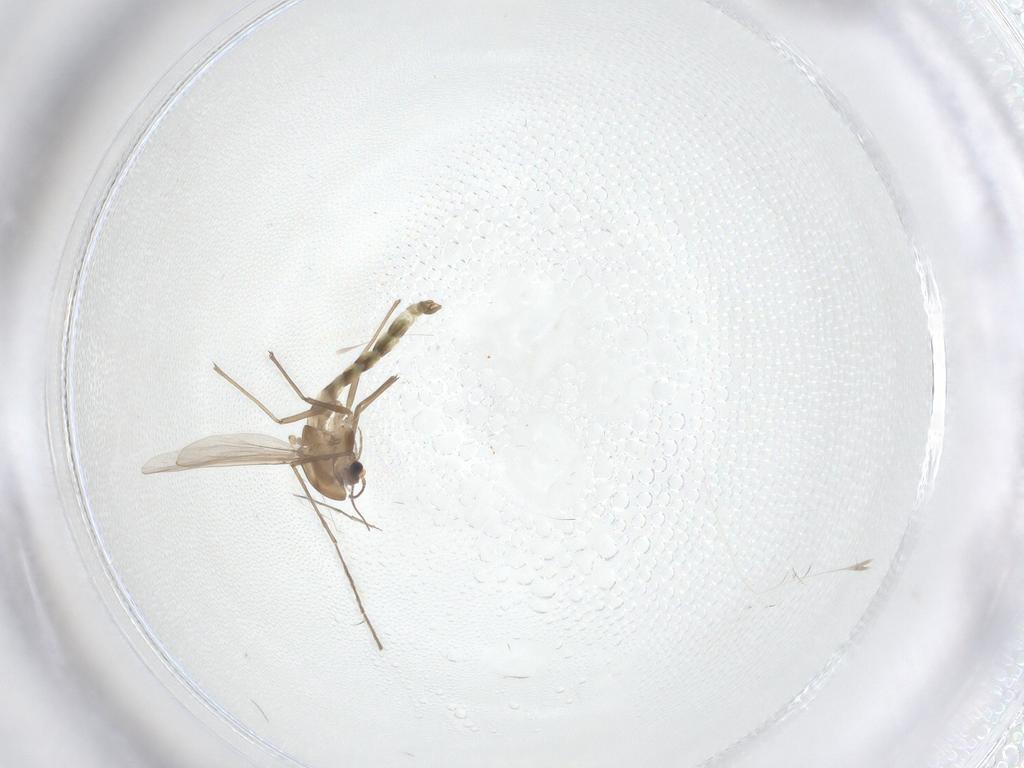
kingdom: Animalia
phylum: Arthropoda
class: Insecta
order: Diptera
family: Chironomidae
